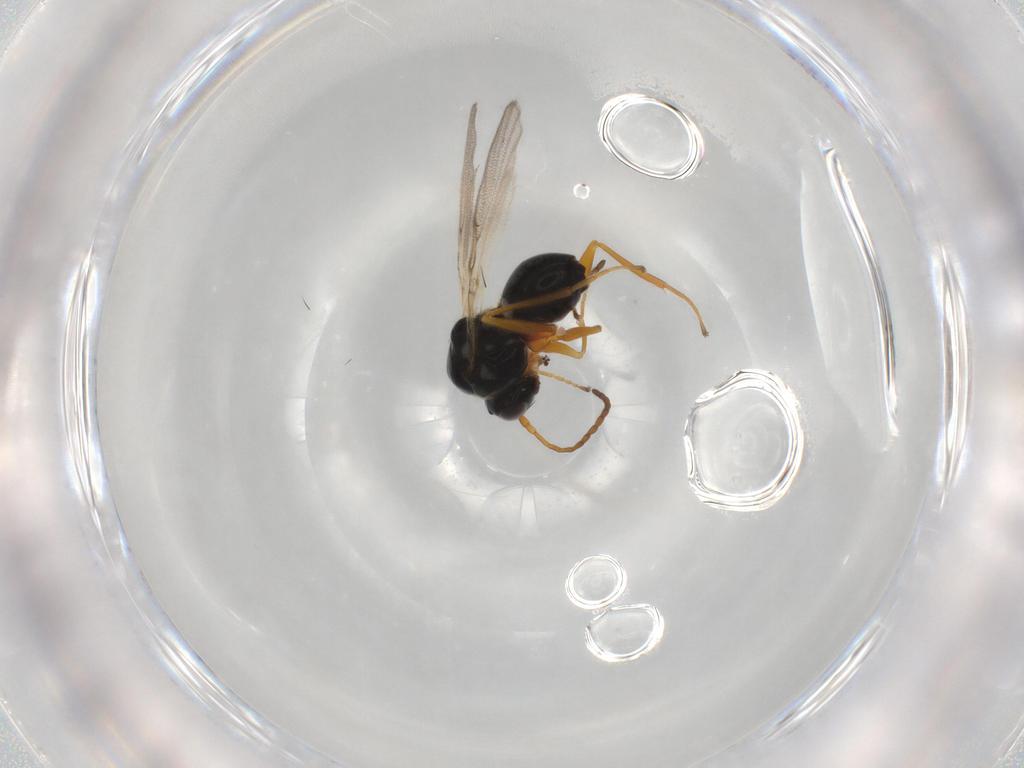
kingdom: Animalia
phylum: Arthropoda
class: Insecta
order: Hymenoptera
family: Figitidae
